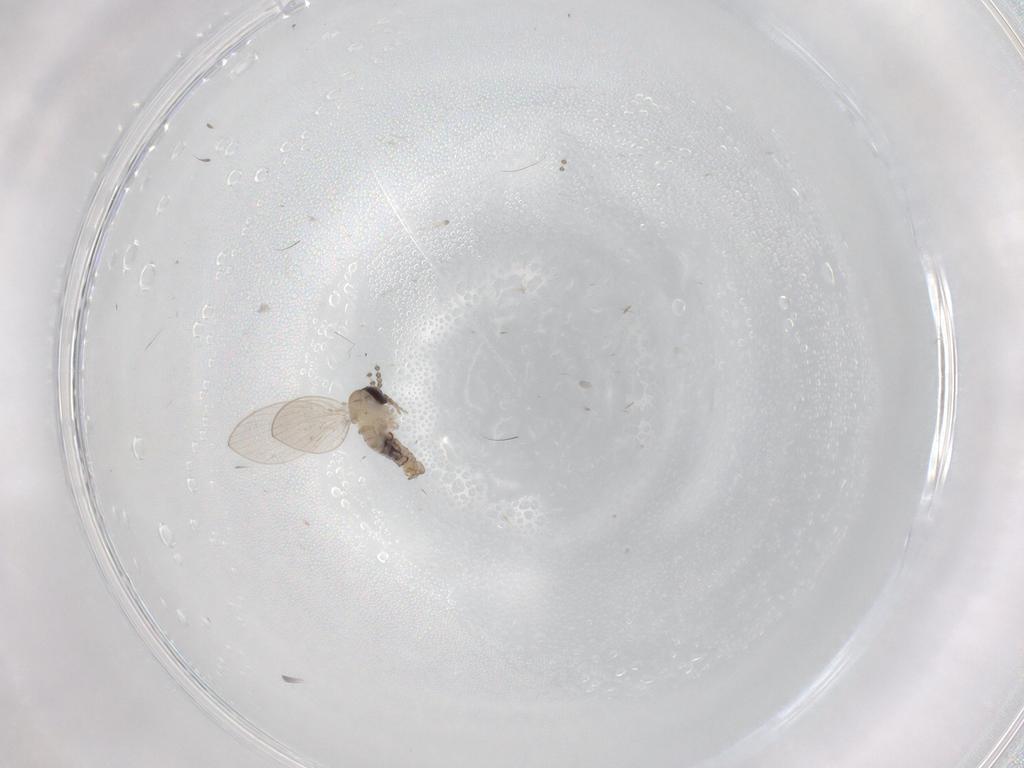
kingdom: Animalia
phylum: Arthropoda
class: Insecta
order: Diptera
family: Psychodidae
